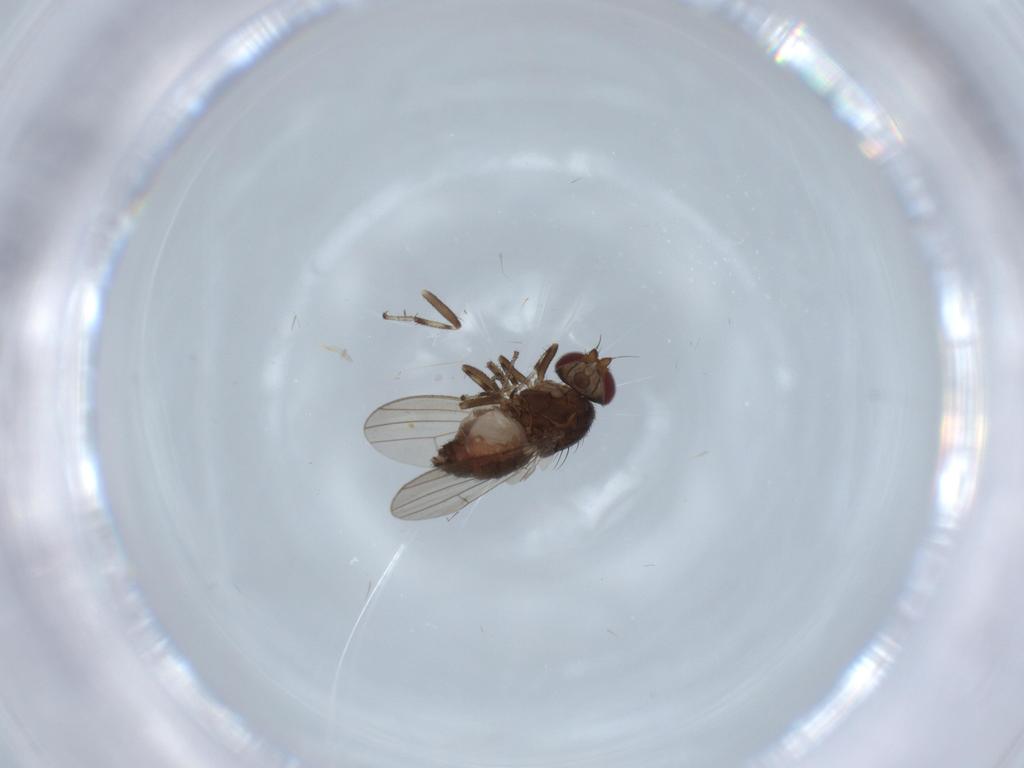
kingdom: Animalia
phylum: Arthropoda
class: Insecta
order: Diptera
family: Heleomyzidae
